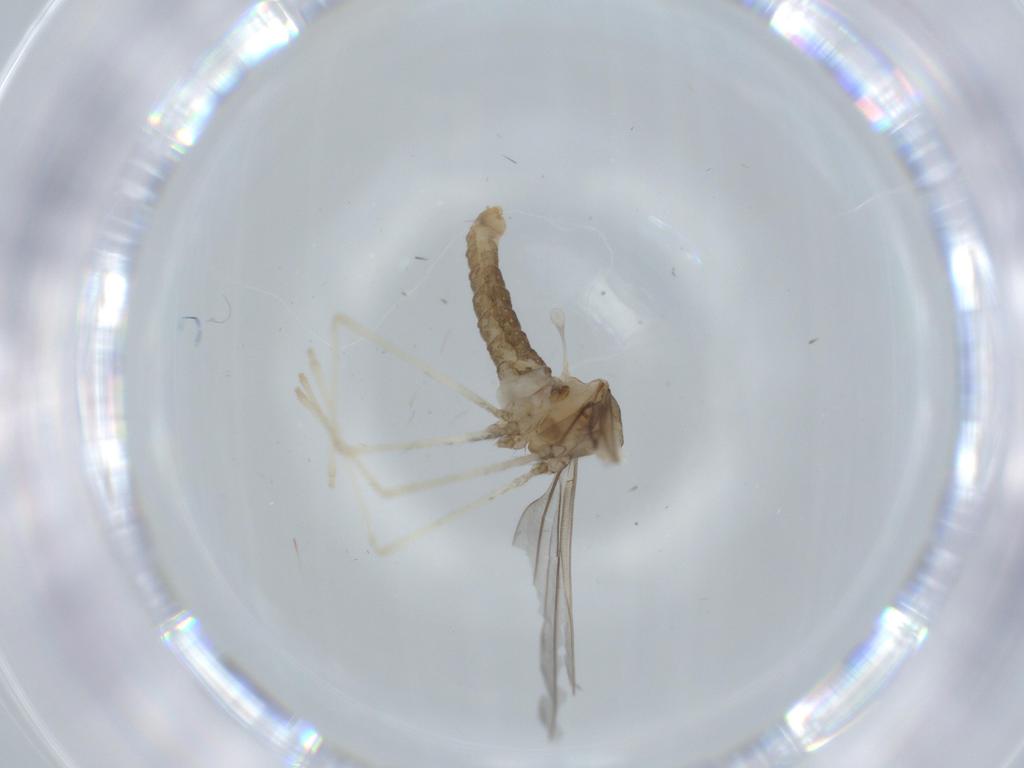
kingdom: Animalia
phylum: Arthropoda
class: Insecta
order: Diptera
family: Cecidomyiidae
